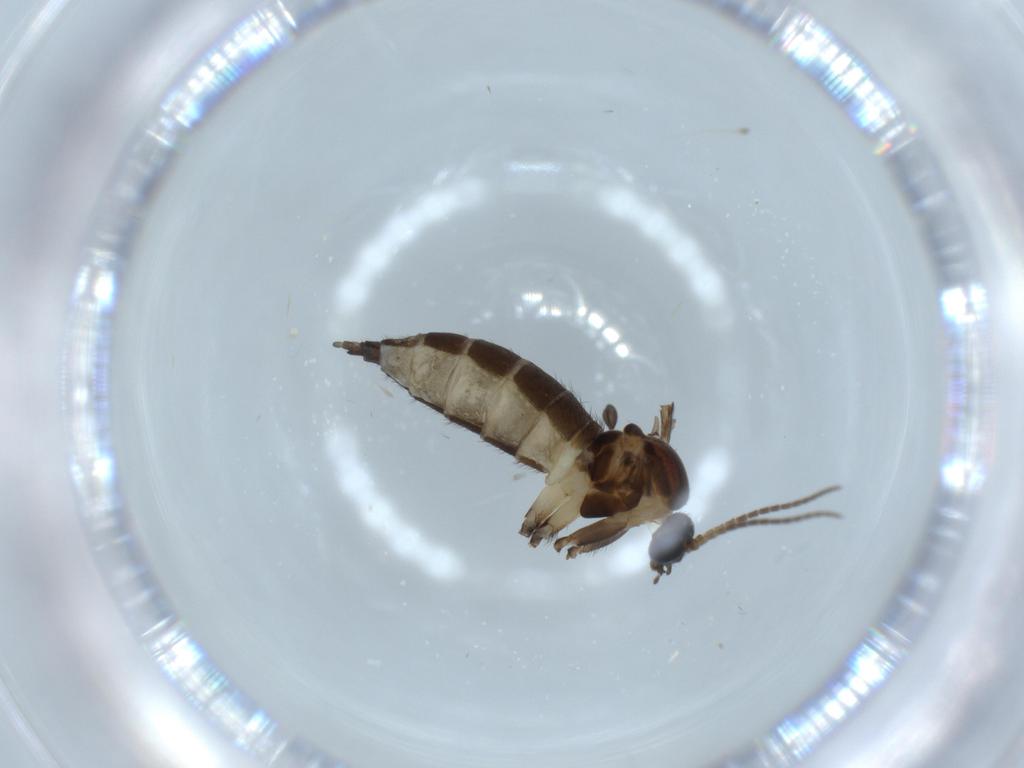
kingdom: Animalia
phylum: Arthropoda
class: Insecta
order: Diptera
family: Sciaridae
